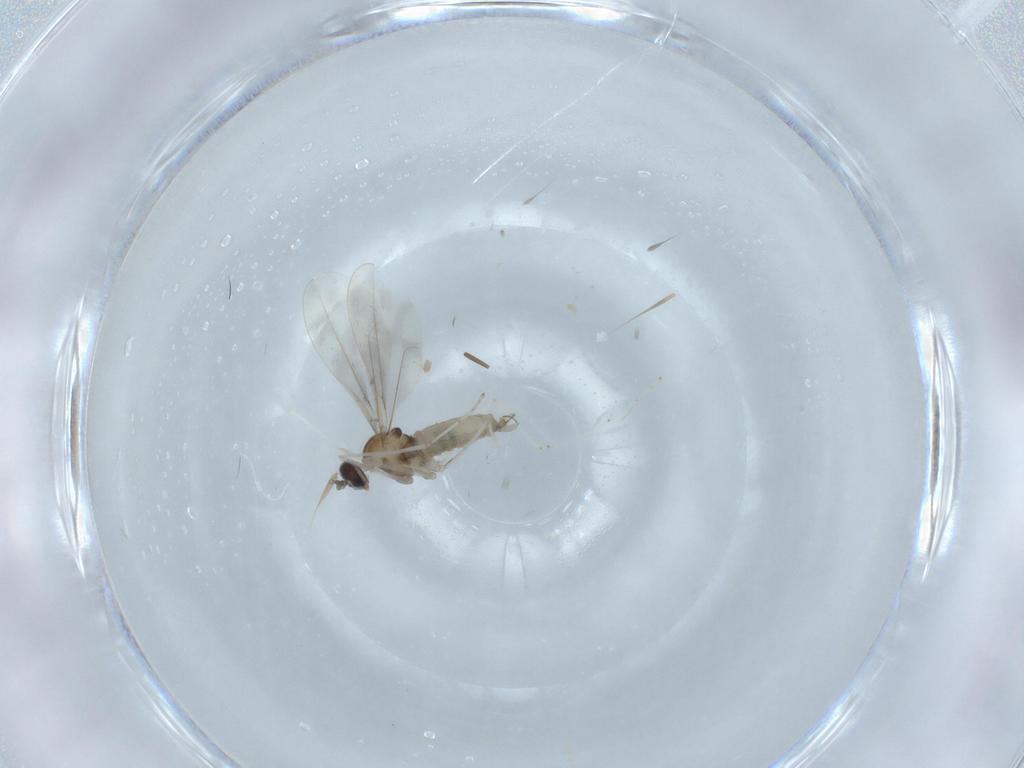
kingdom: Animalia
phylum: Arthropoda
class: Insecta
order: Diptera
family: Cecidomyiidae
